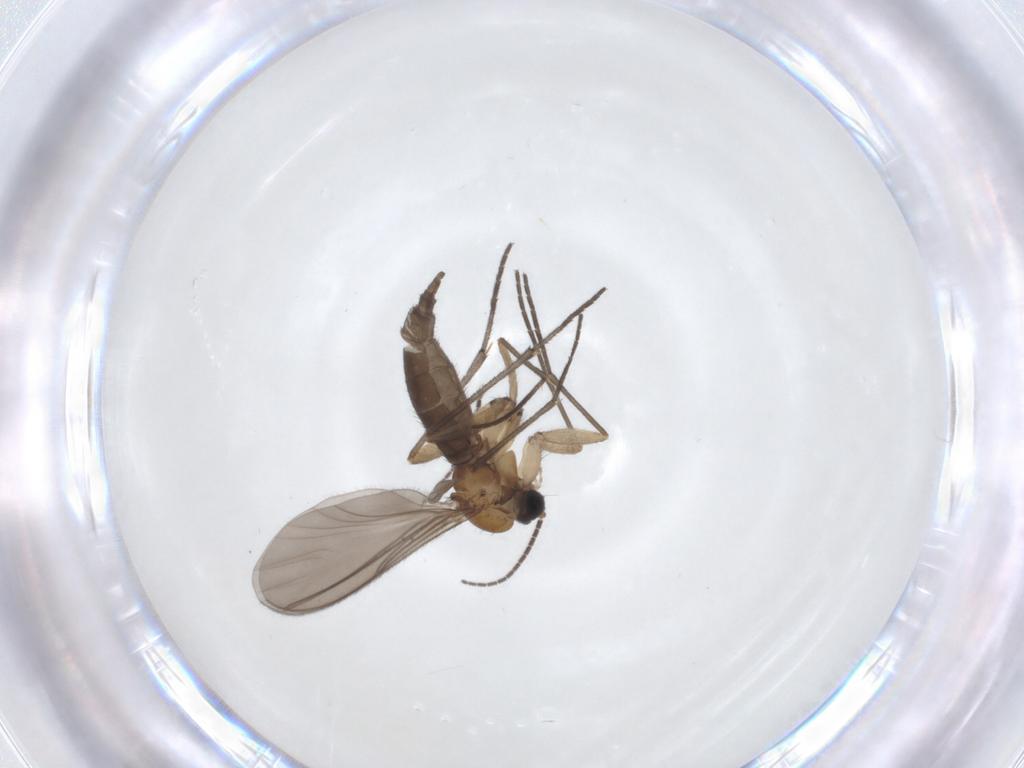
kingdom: Animalia
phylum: Arthropoda
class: Insecta
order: Diptera
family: Sciaridae
